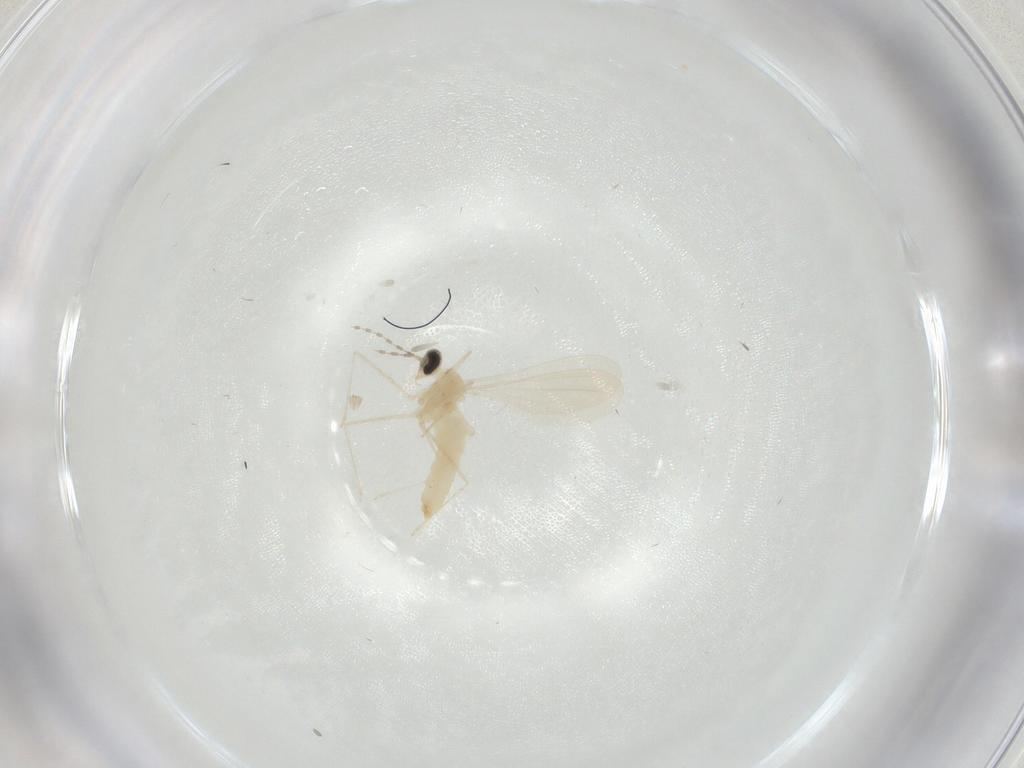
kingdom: Animalia
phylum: Arthropoda
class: Insecta
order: Diptera
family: Cecidomyiidae
